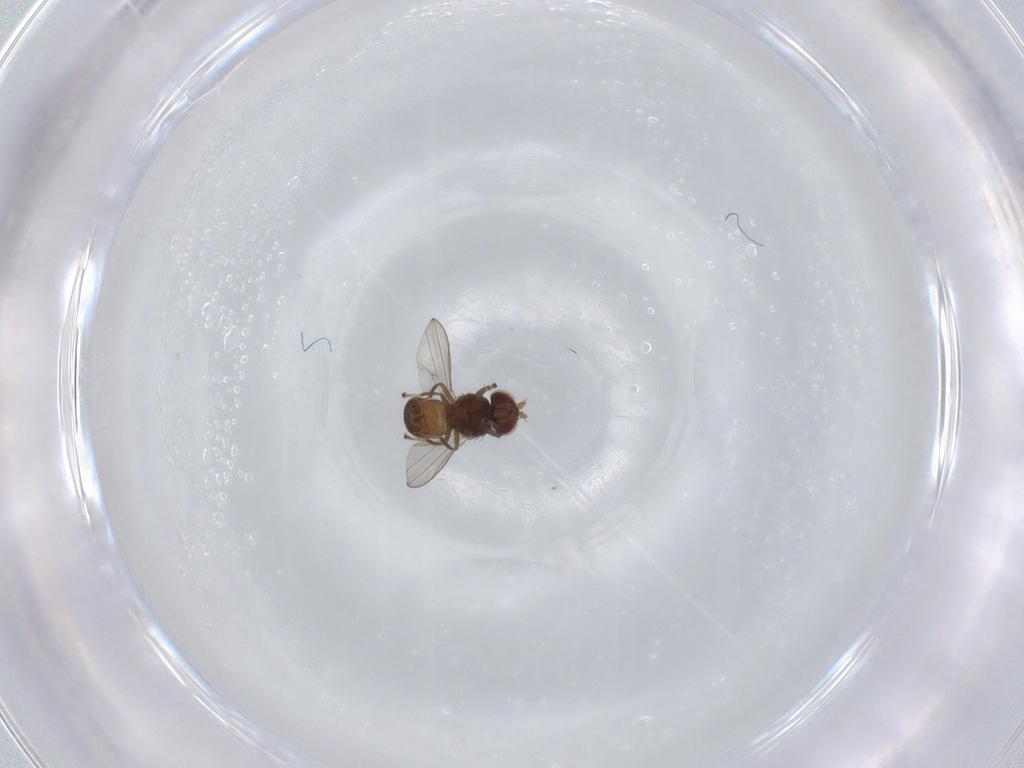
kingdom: Animalia
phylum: Arthropoda
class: Insecta
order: Diptera
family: Ephydridae
